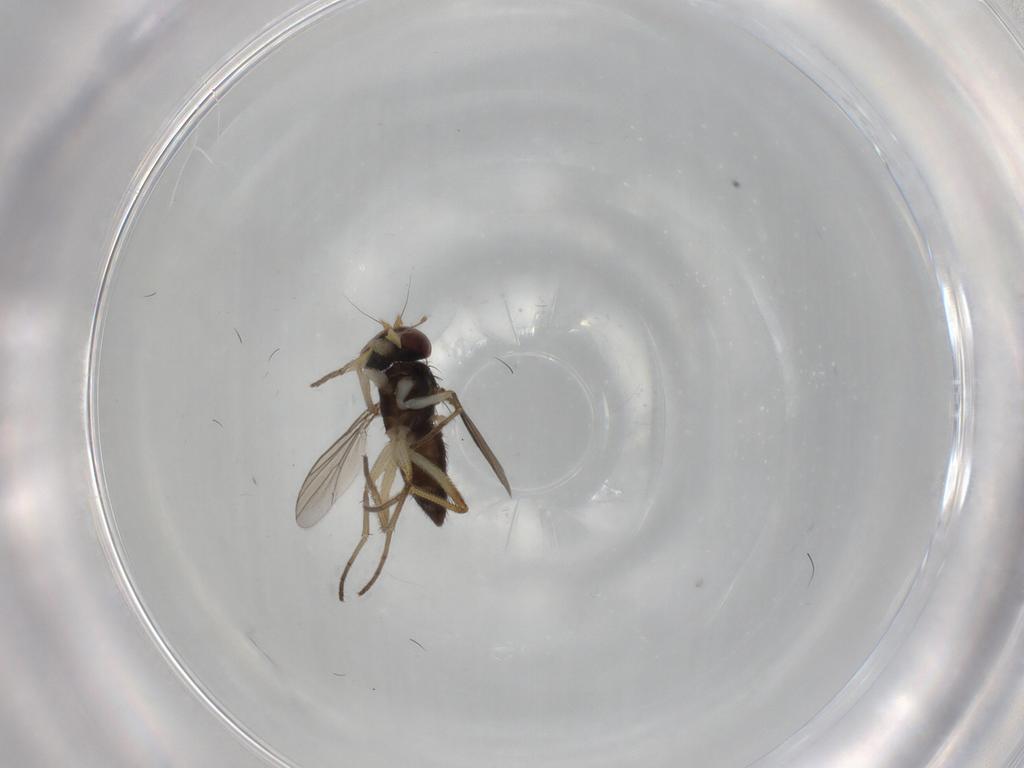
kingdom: Animalia
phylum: Arthropoda
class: Insecta
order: Diptera
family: Dolichopodidae
